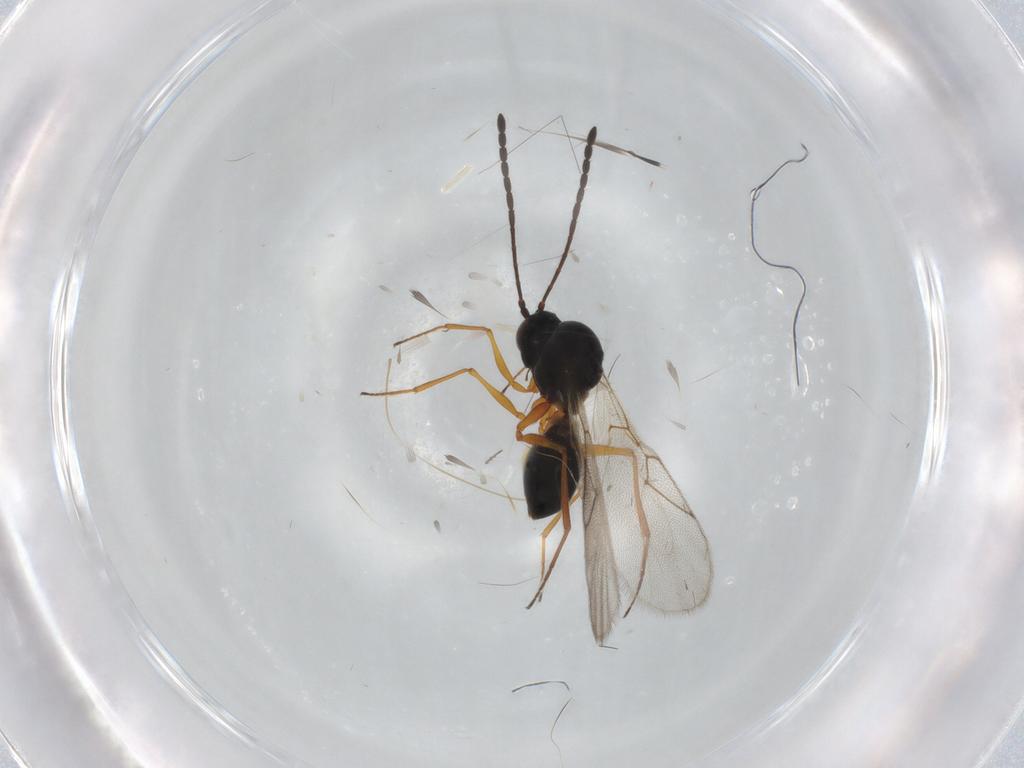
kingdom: Animalia
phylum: Arthropoda
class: Insecta
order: Hymenoptera
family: Figitidae
